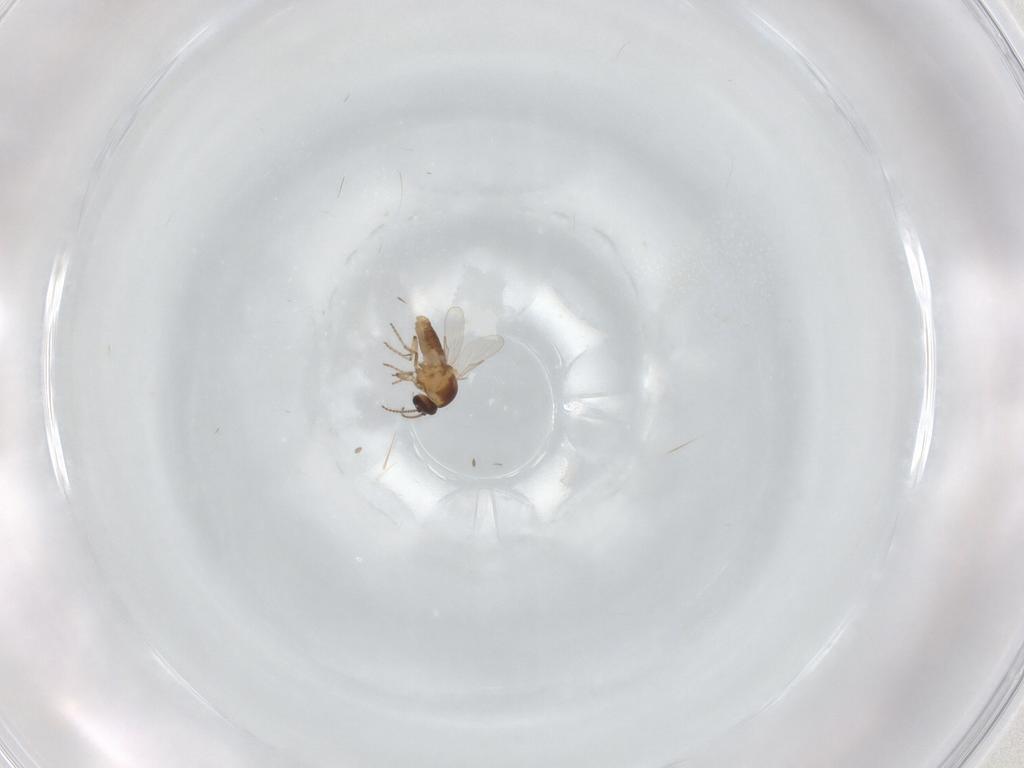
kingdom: Animalia
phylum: Arthropoda
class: Insecta
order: Diptera
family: Ceratopogonidae
